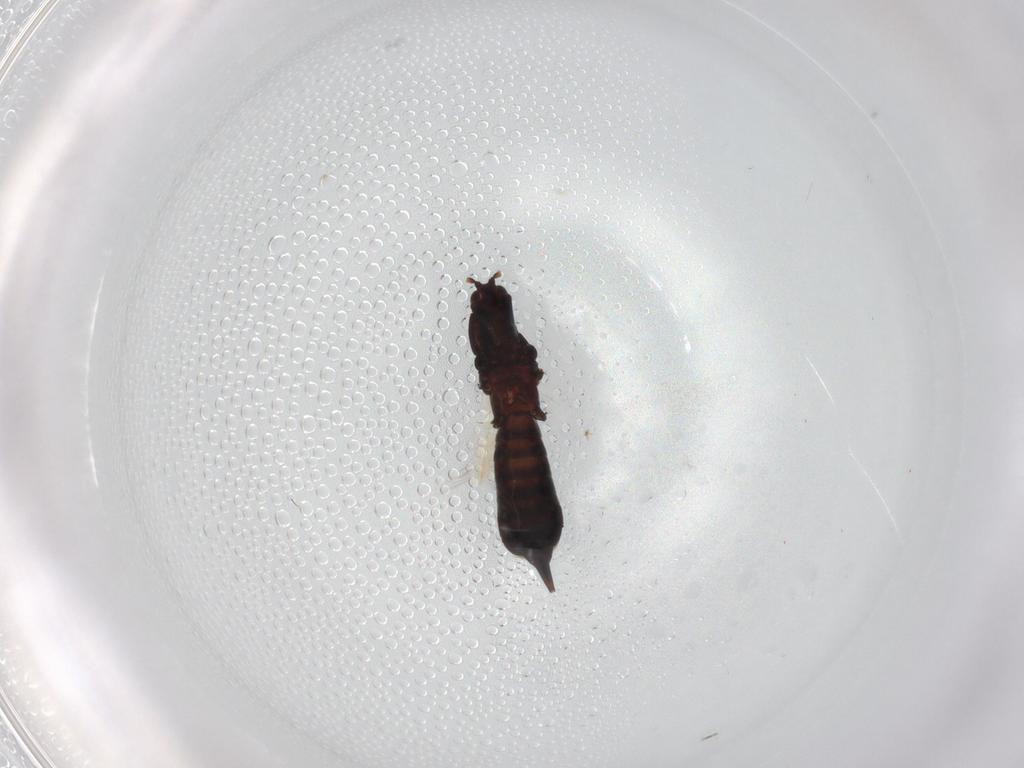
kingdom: Animalia
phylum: Arthropoda
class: Insecta
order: Thysanoptera
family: Phlaeothripidae
